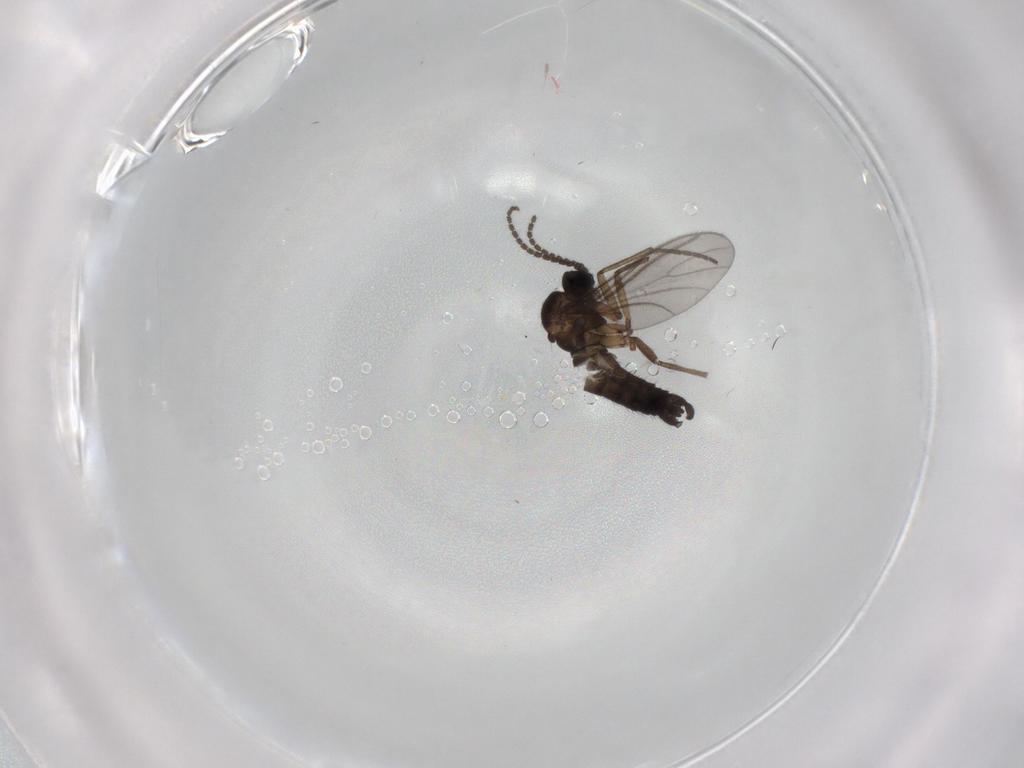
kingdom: Animalia
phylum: Arthropoda
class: Insecta
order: Diptera
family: Sciaridae
